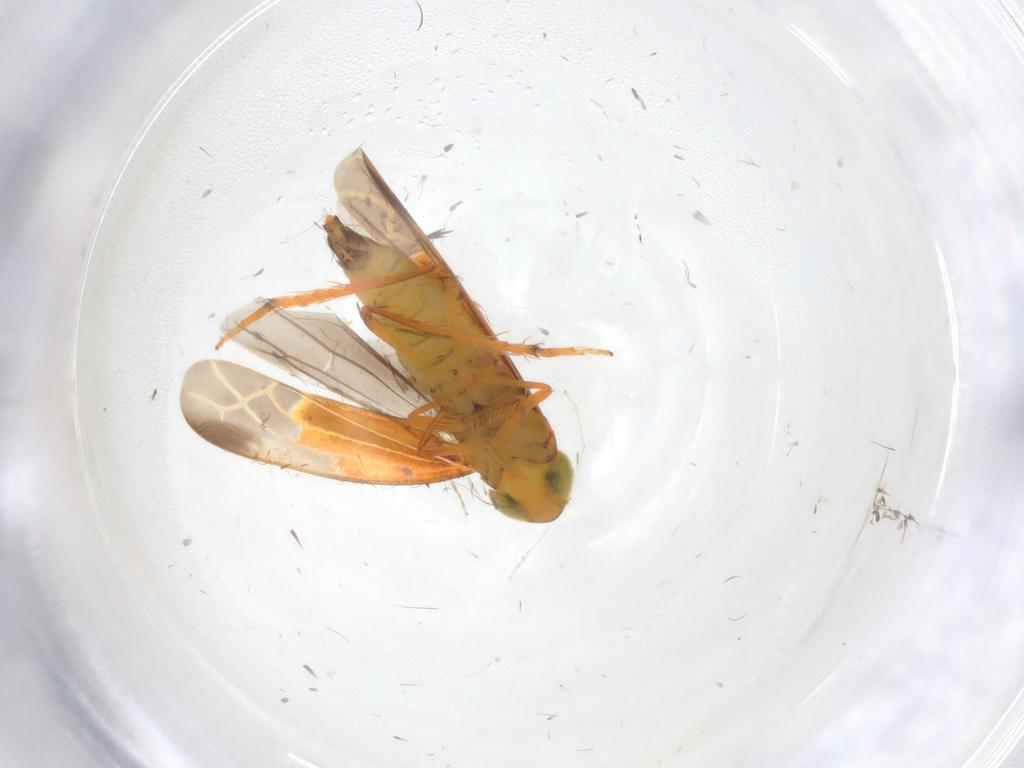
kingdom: Animalia
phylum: Arthropoda
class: Insecta
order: Hemiptera
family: Cicadellidae
